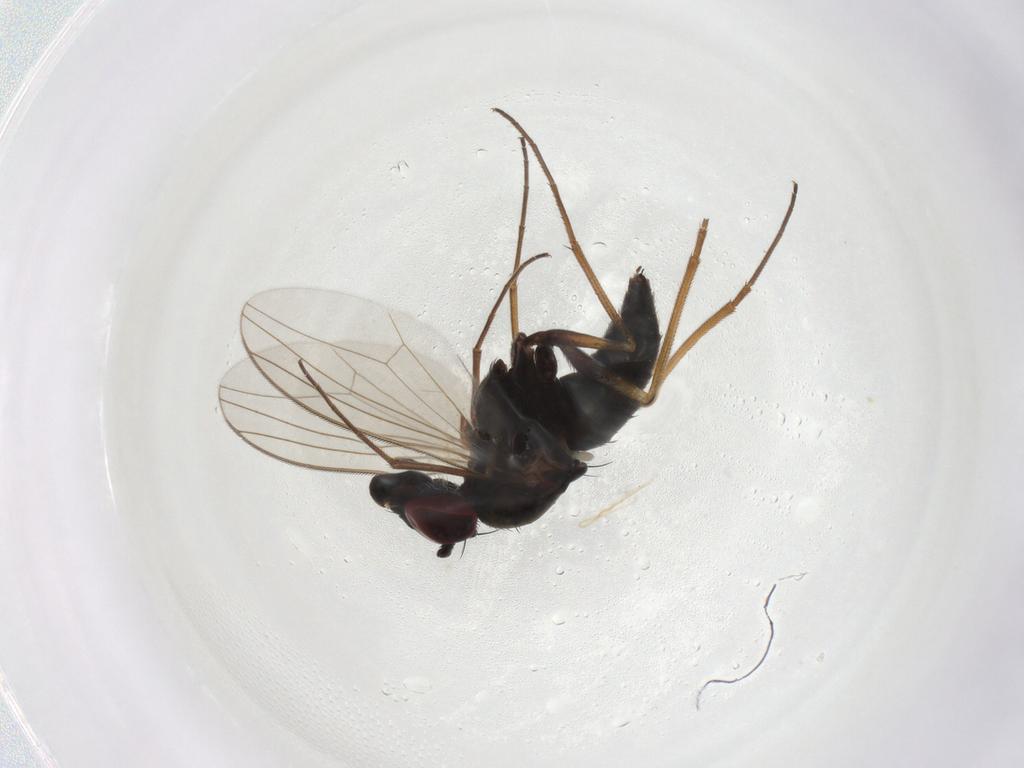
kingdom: Animalia
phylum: Arthropoda
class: Insecta
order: Diptera
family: Dolichopodidae
